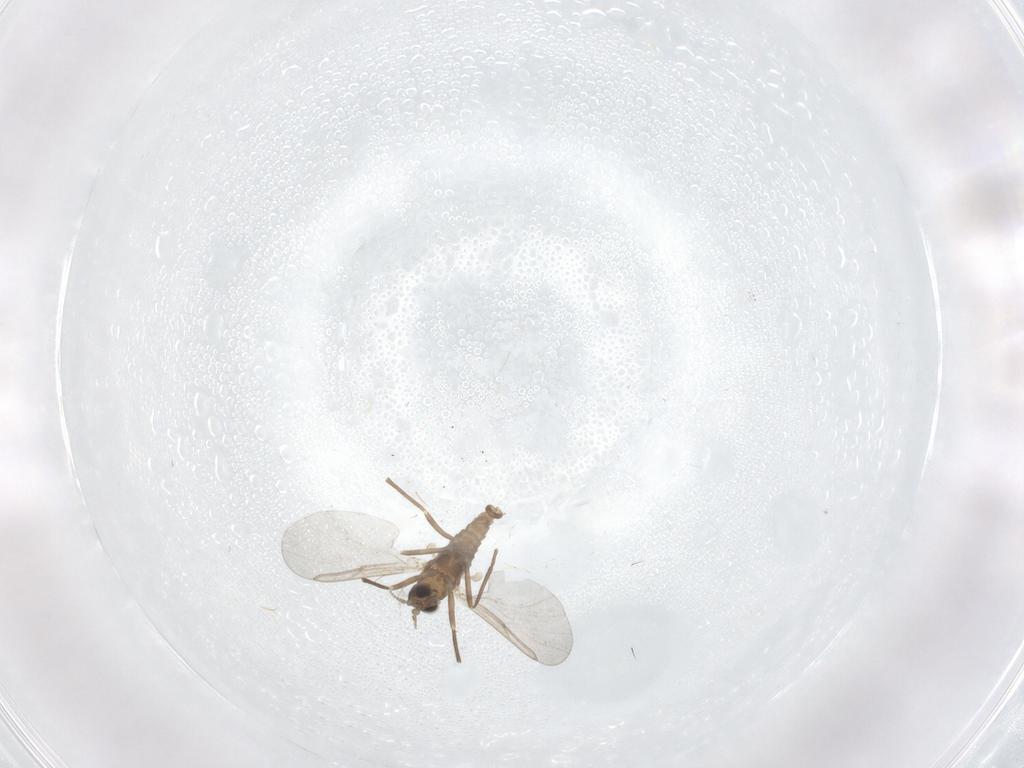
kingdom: Animalia
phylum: Arthropoda
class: Insecta
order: Diptera
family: Cecidomyiidae
